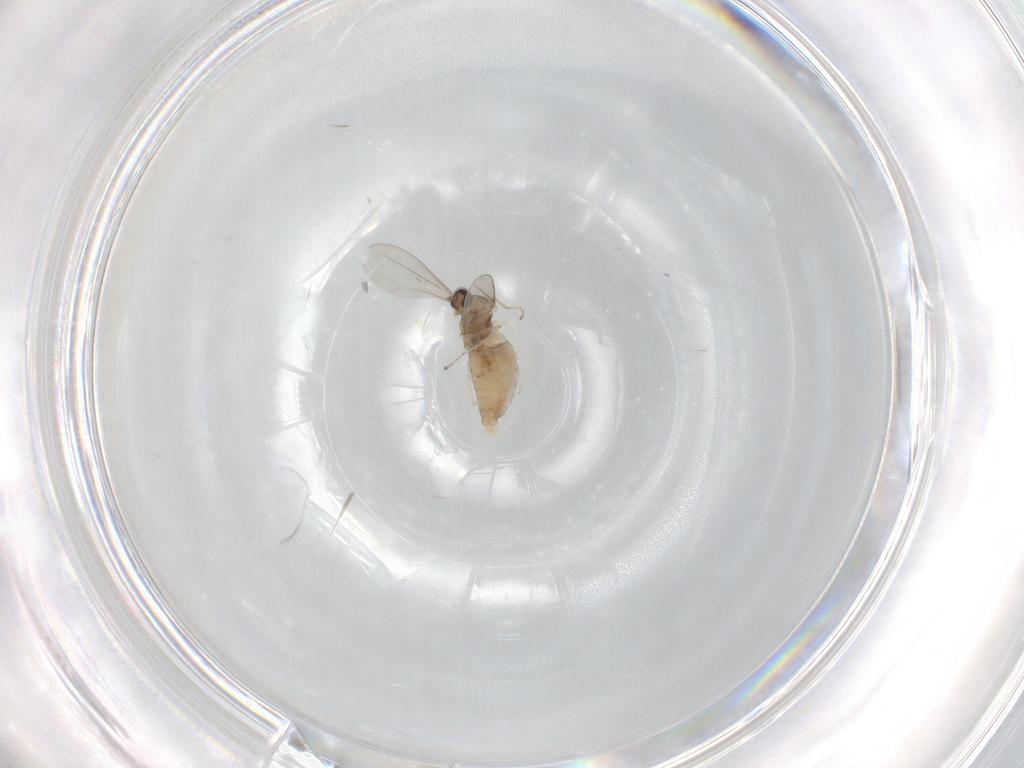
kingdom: Animalia
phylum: Arthropoda
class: Insecta
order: Diptera
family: Cecidomyiidae
